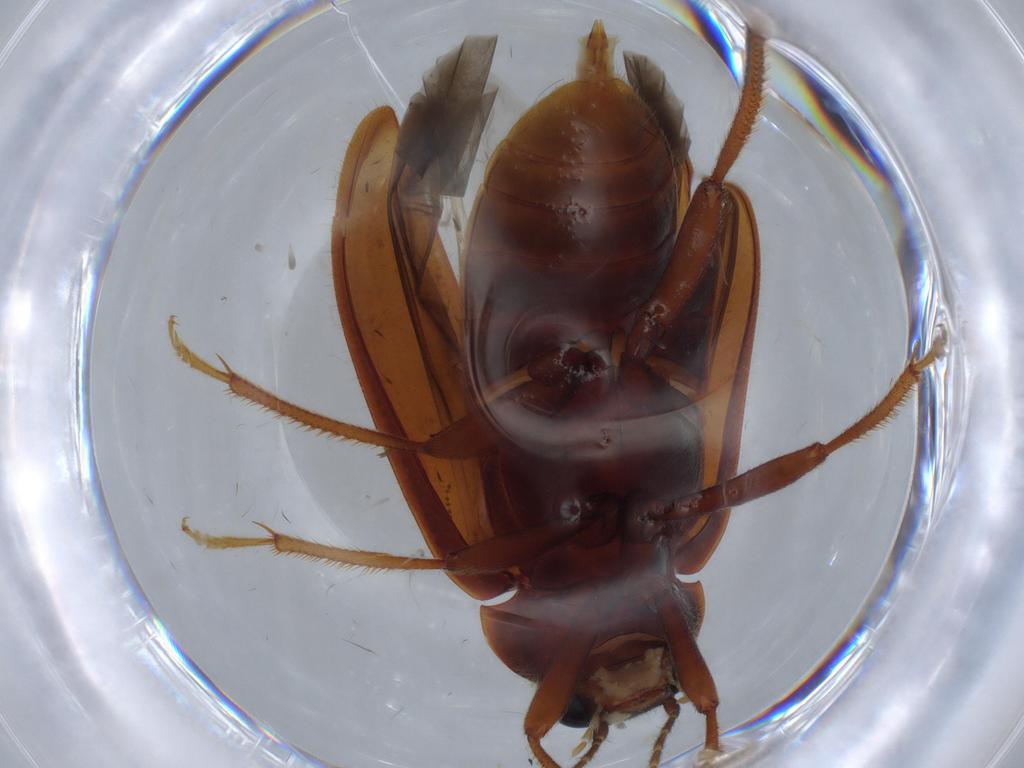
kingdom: Animalia
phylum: Arthropoda
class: Insecta
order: Coleoptera
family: Ptilodactylidae
